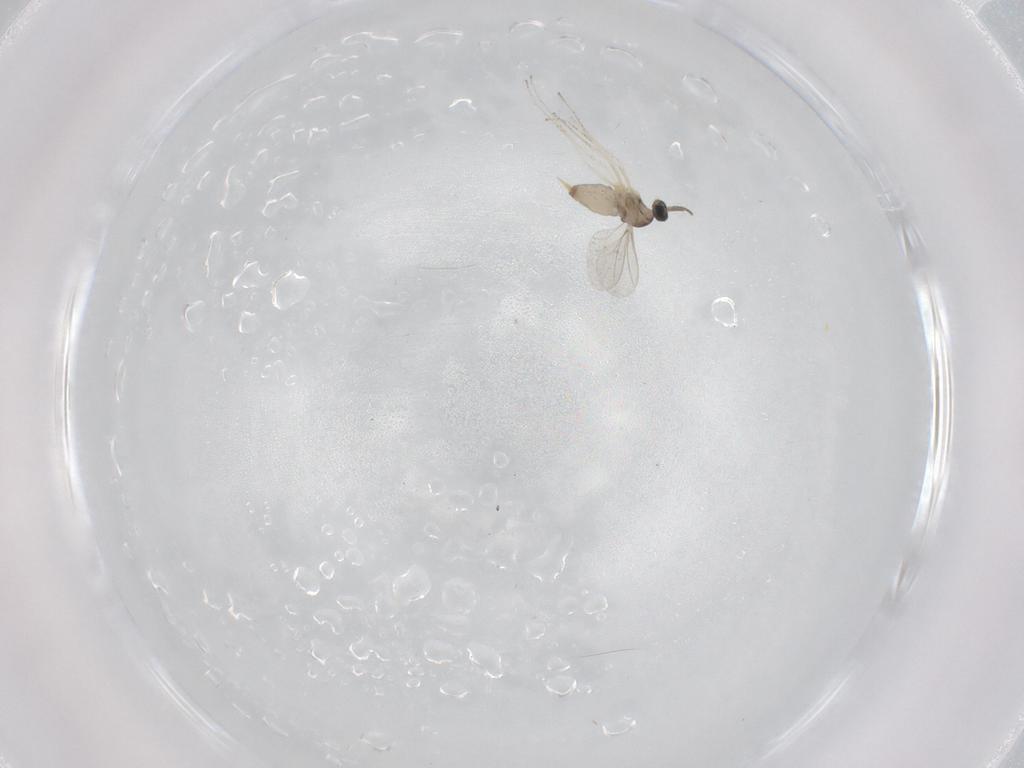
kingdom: Animalia
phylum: Arthropoda
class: Insecta
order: Diptera
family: Cecidomyiidae
